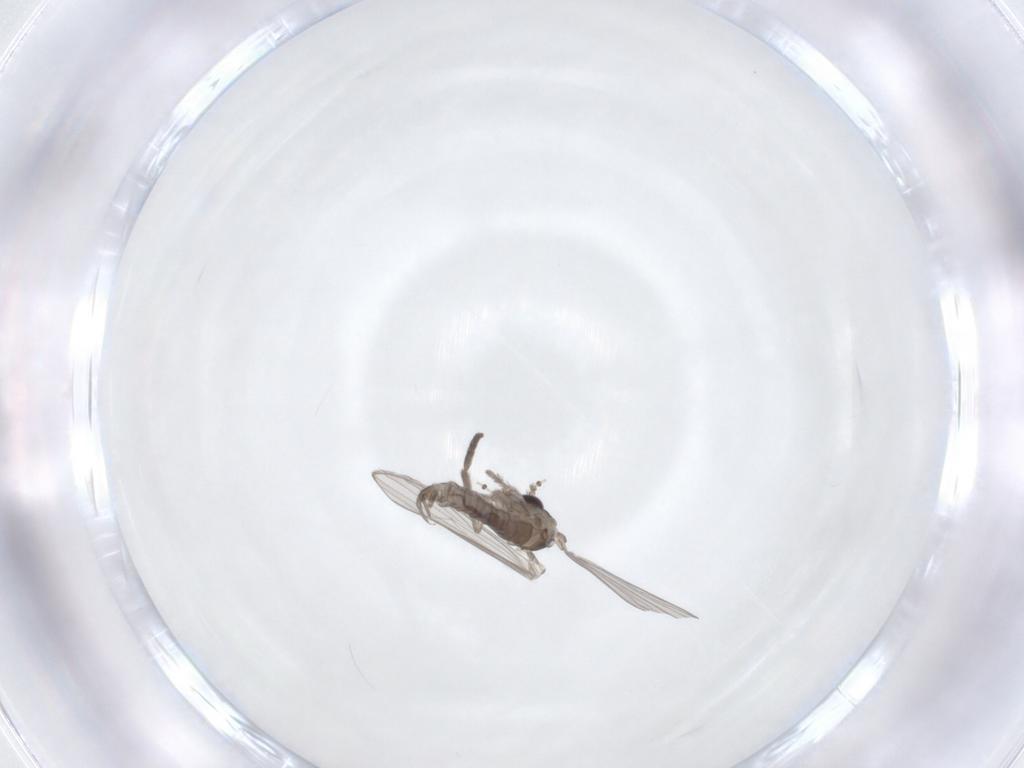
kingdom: Animalia
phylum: Arthropoda
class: Insecta
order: Diptera
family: Psychodidae
